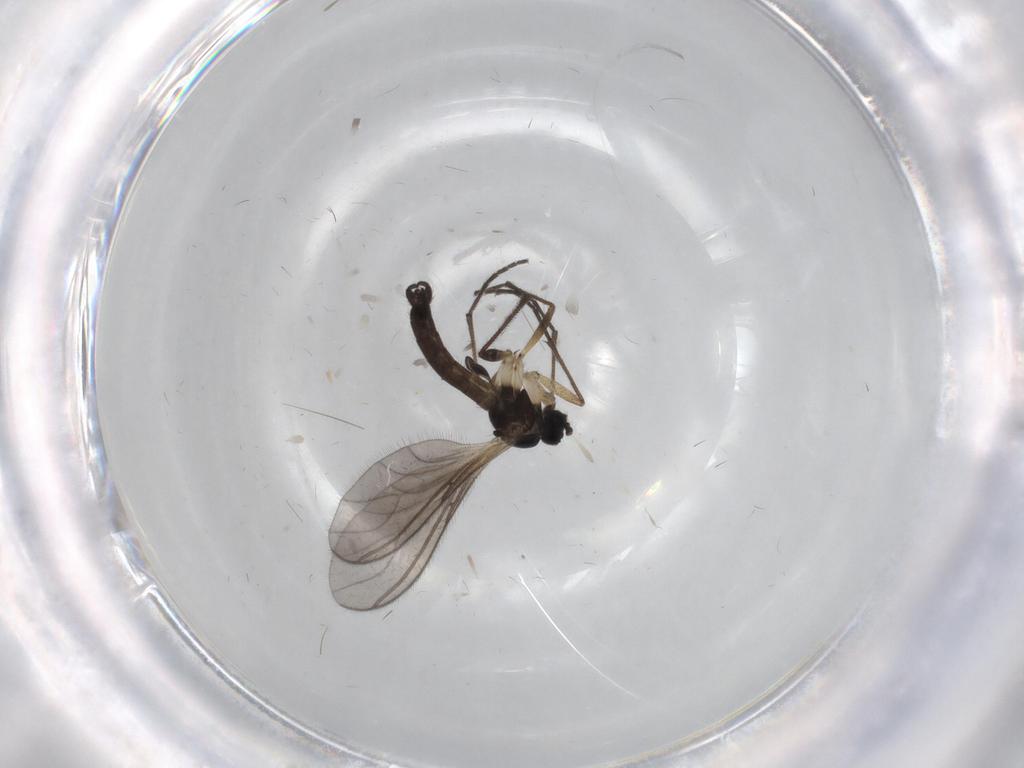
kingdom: Animalia
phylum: Arthropoda
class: Insecta
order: Diptera
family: Sciaridae
